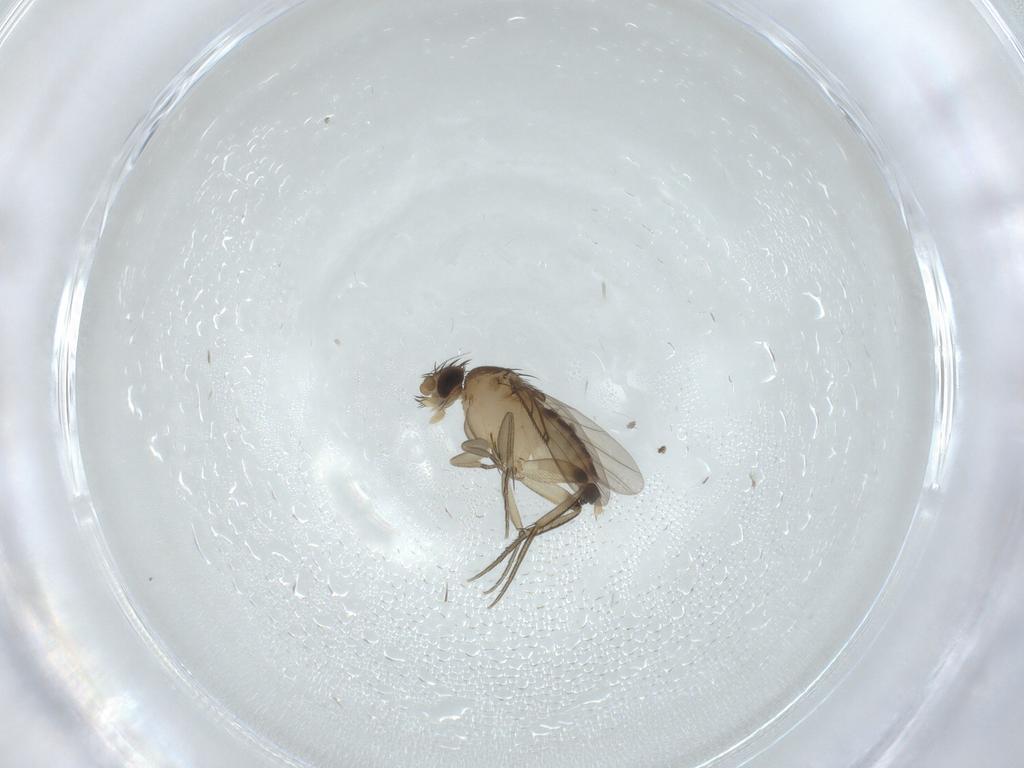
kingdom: Animalia
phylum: Arthropoda
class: Insecta
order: Diptera
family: Phoridae
